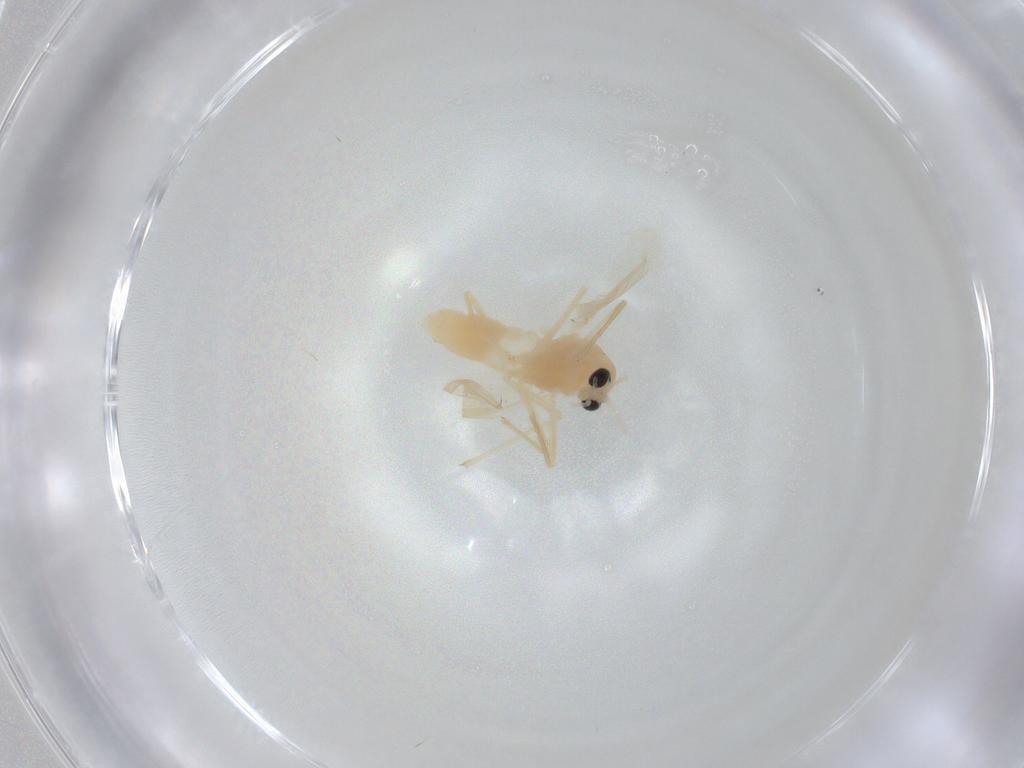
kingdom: Animalia
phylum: Arthropoda
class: Insecta
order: Diptera
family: Chironomidae
